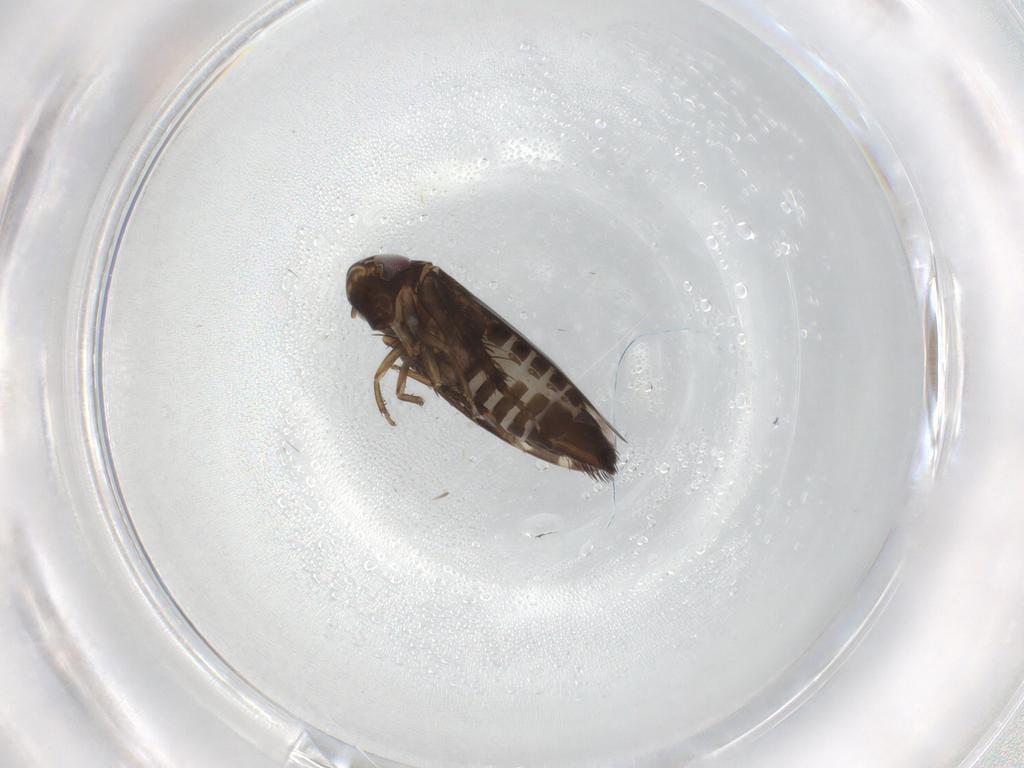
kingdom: Animalia
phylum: Arthropoda
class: Insecta
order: Hemiptera
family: Cicadellidae
